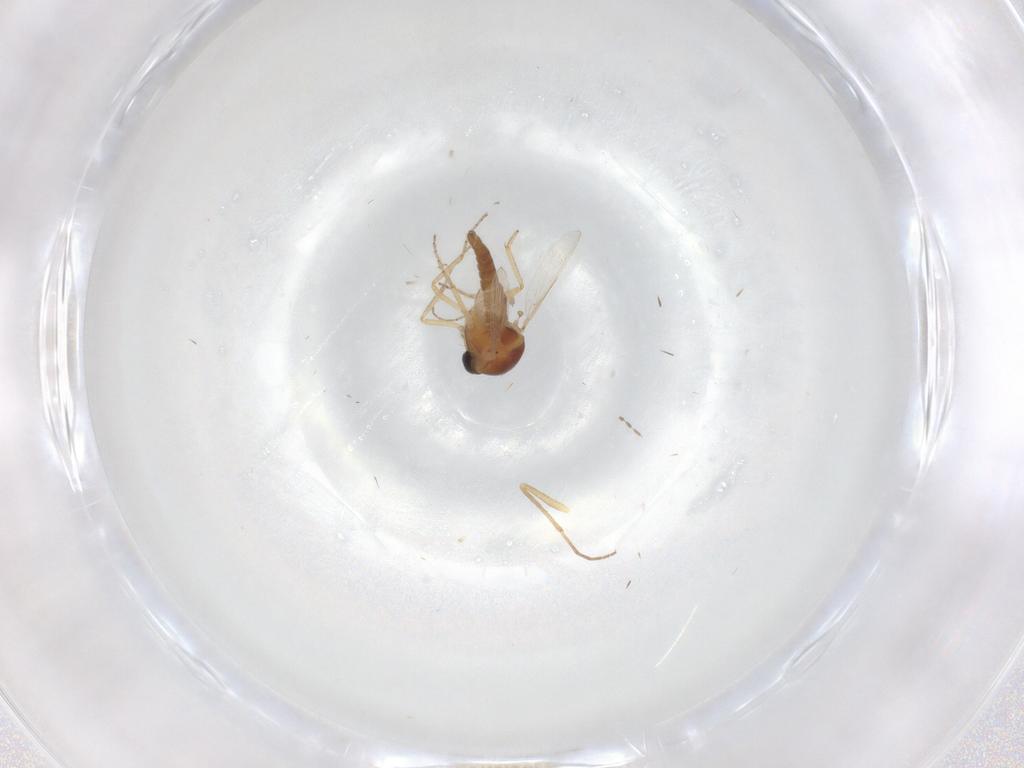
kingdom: Animalia
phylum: Arthropoda
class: Insecta
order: Diptera
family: Ceratopogonidae
